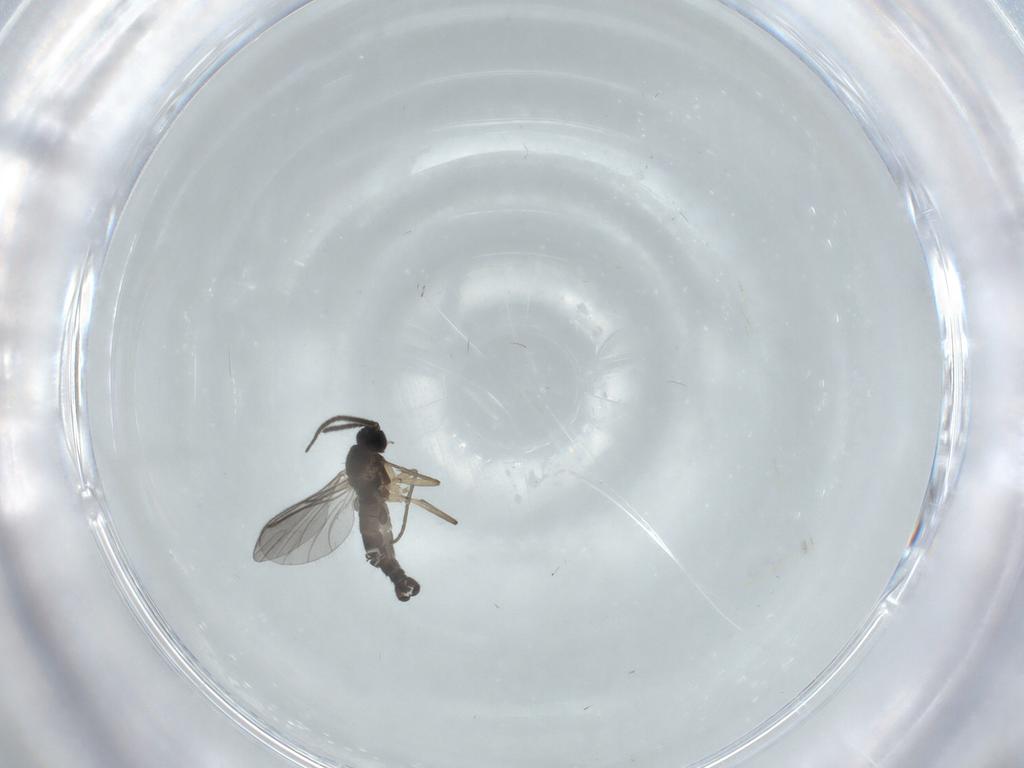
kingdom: Animalia
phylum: Arthropoda
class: Insecta
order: Diptera
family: Sciaridae
